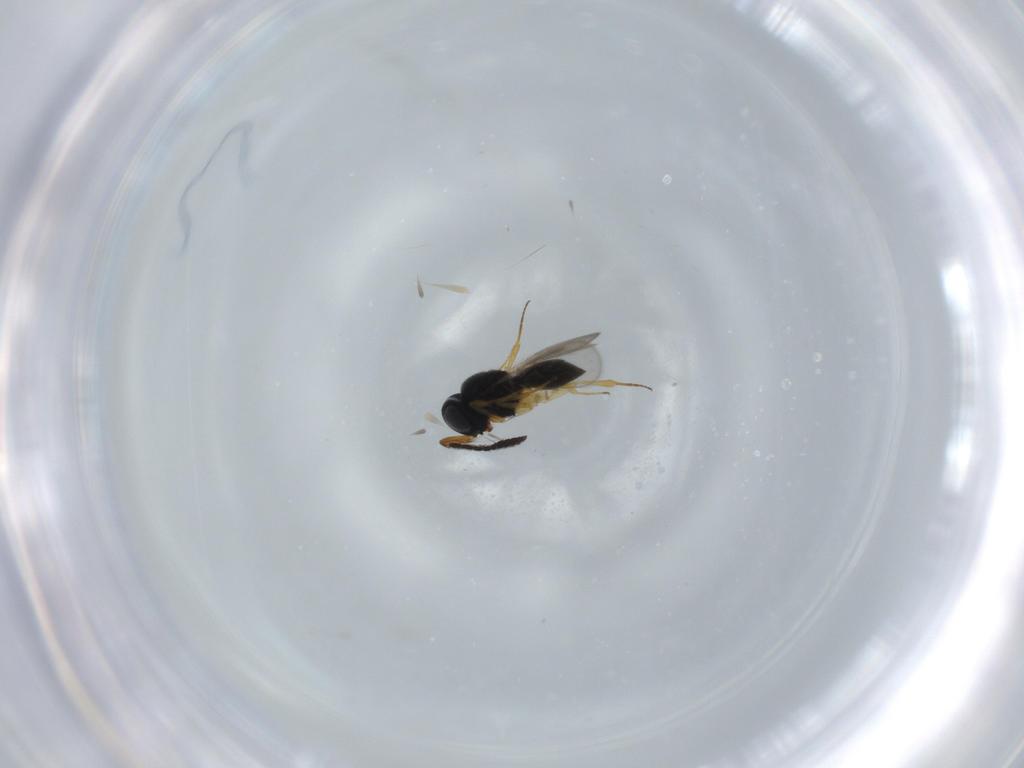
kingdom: Animalia
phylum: Arthropoda
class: Insecta
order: Hymenoptera
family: Scelionidae
